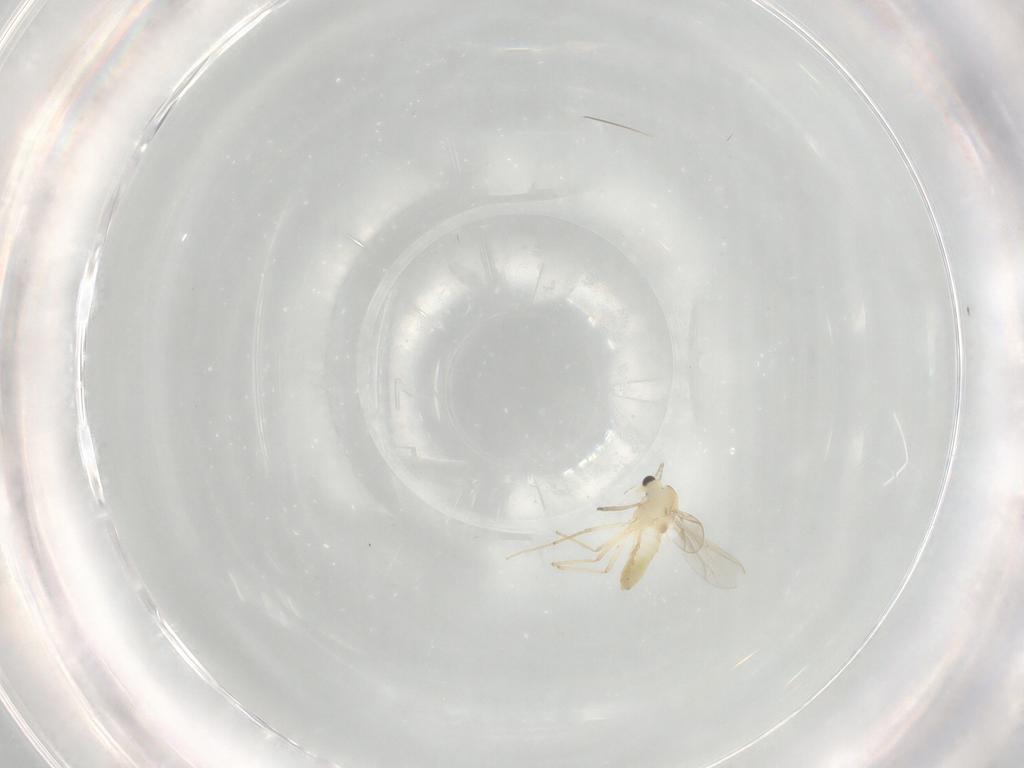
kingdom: Animalia
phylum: Arthropoda
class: Insecta
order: Diptera
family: Ceratopogonidae
